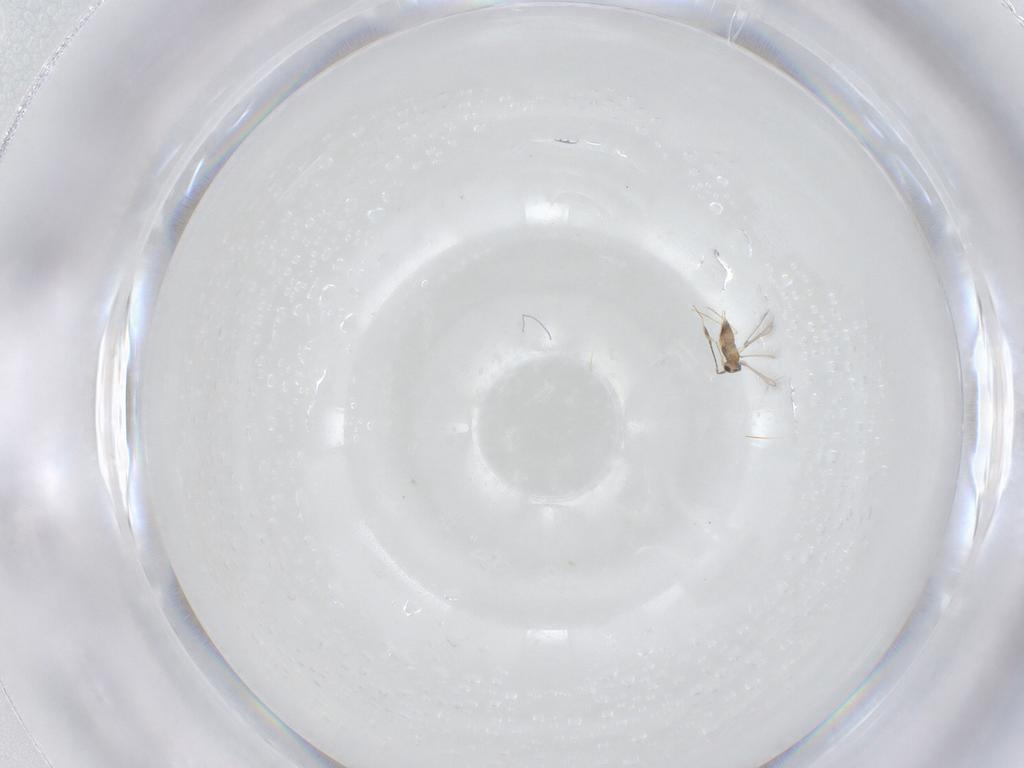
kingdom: Animalia
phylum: Arthropoda
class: Insecta
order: Hymenoptera
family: Mymaridae
